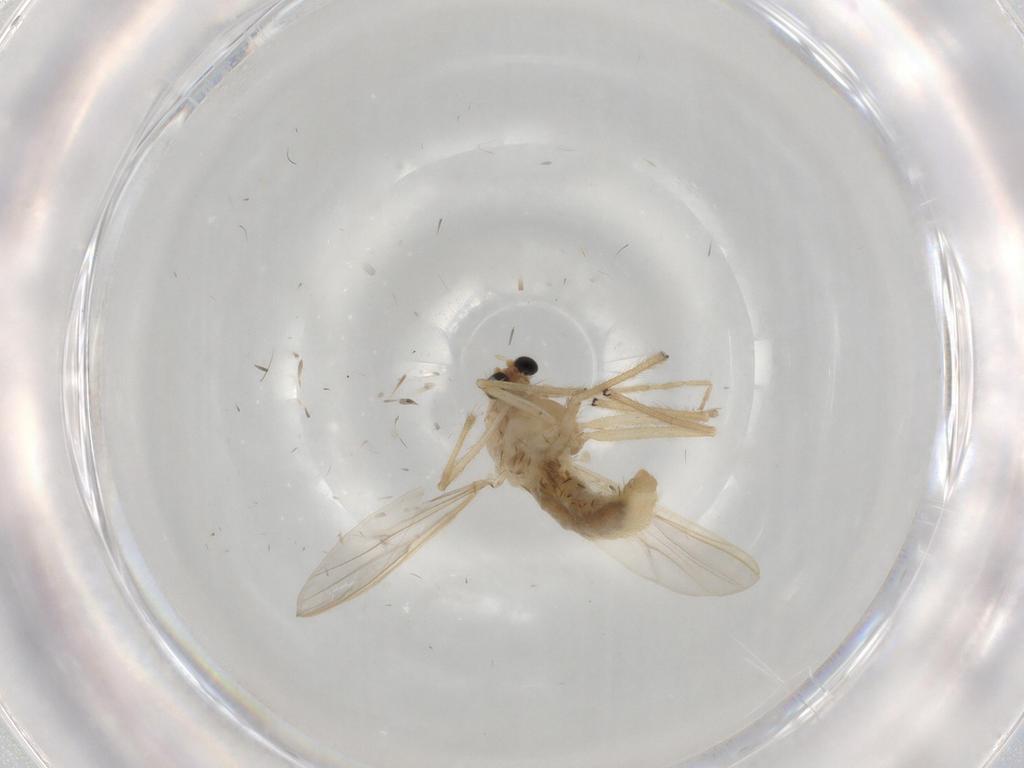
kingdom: Animalia
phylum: Arthropoda
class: Insecta
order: Diptera
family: Chironomidae
